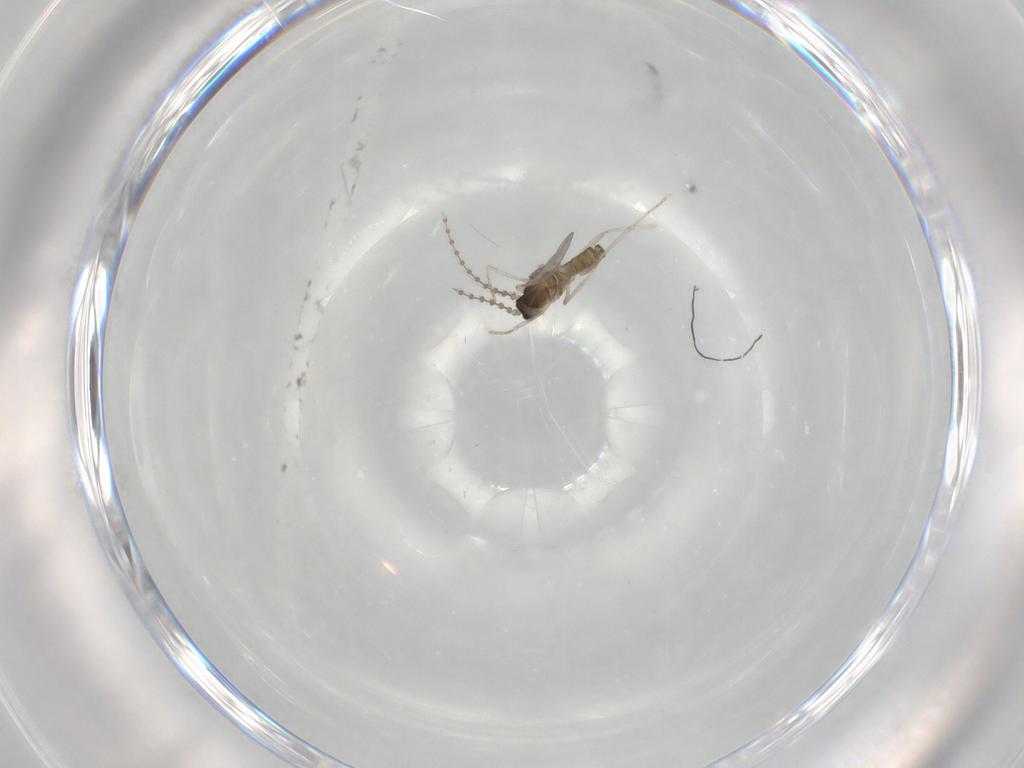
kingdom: Animalia
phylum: Arthropoda
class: Insecta
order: Diptera
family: Cecidomyiidae
